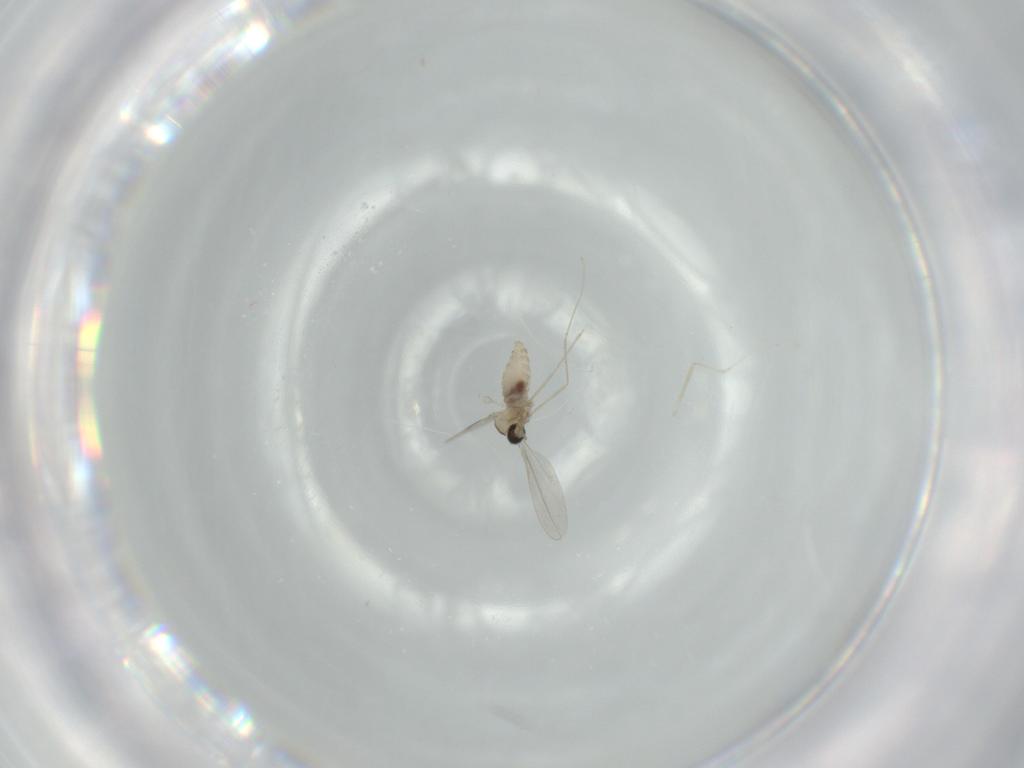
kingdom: Animalia
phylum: Arthropoda
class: Insecta
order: Diptera
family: Cecidomyiidae
